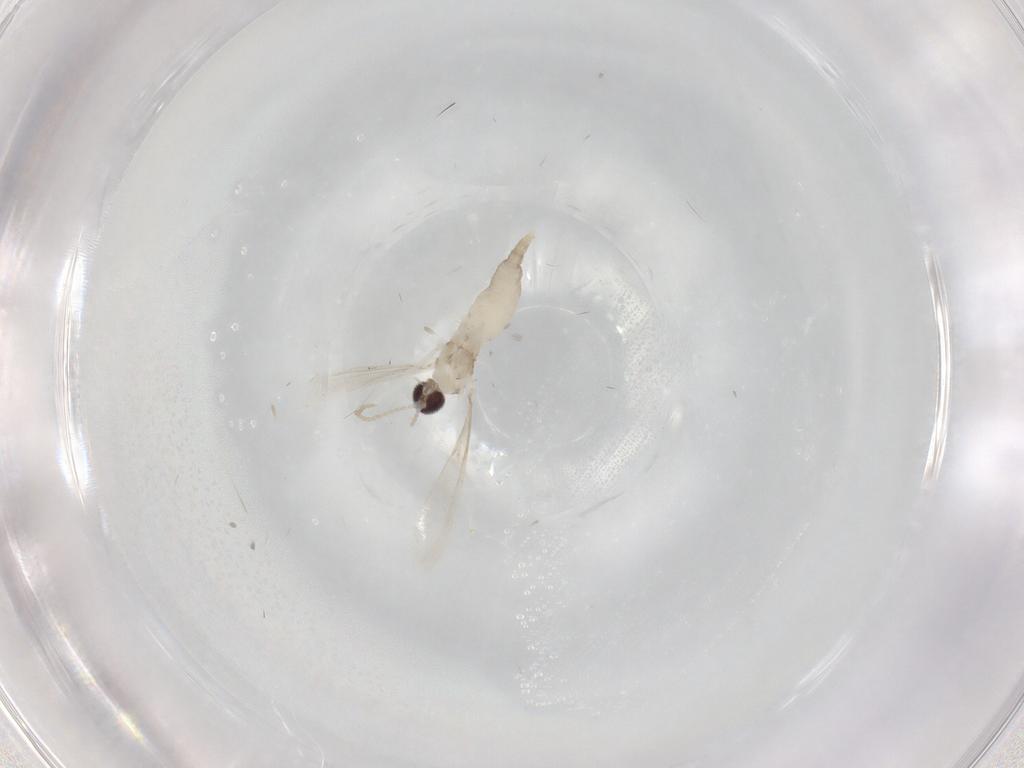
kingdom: Animalia
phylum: Arthropoda
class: Insecta
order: Diptera
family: Cecidomyiidae
